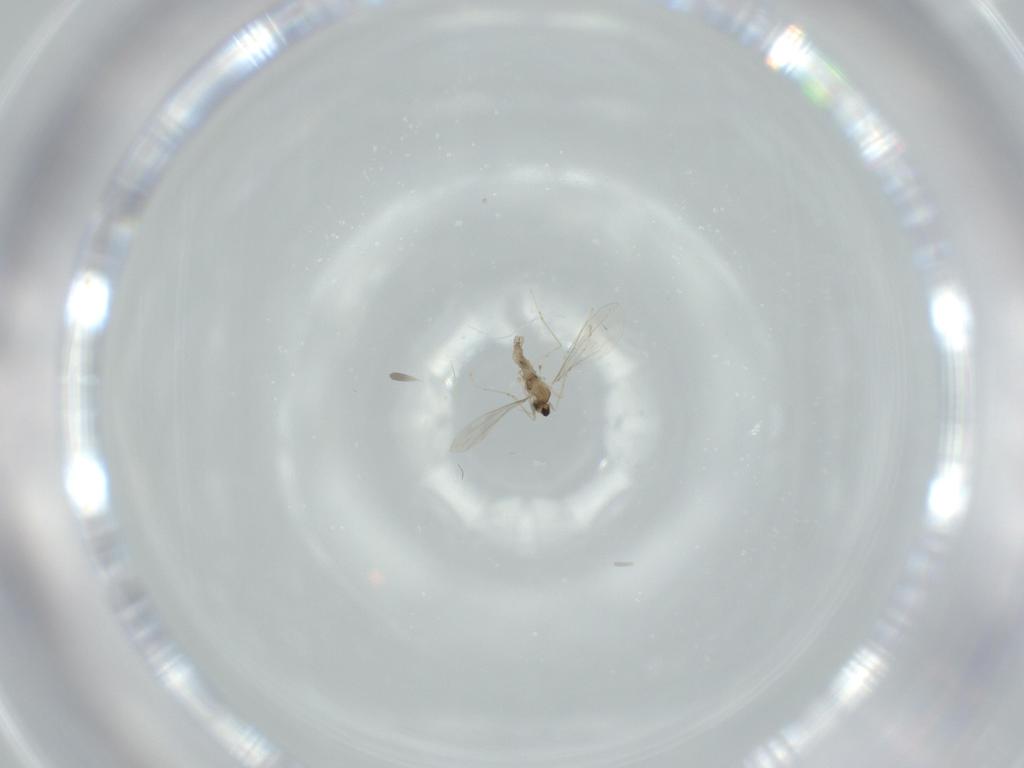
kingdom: Animalia
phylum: Arthropoda
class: Insecta
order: Diptera
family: Cecidomyiidae
